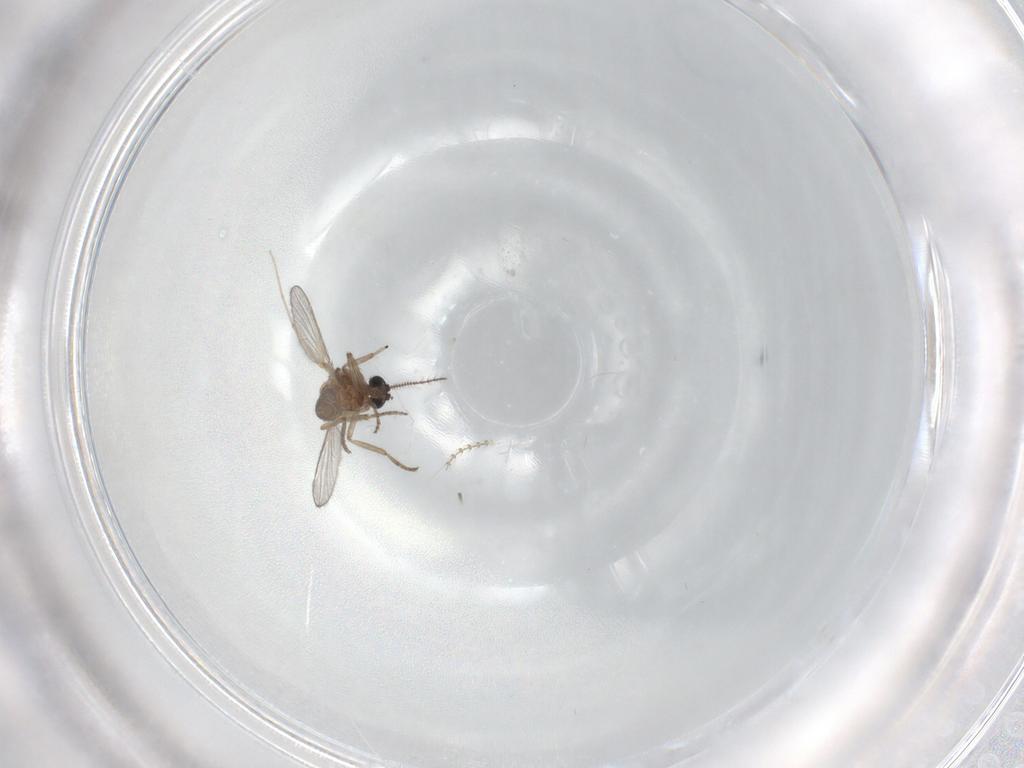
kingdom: Animalia
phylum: Arthropoda
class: Insecta
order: Diptera
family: Cecidomyiidae
